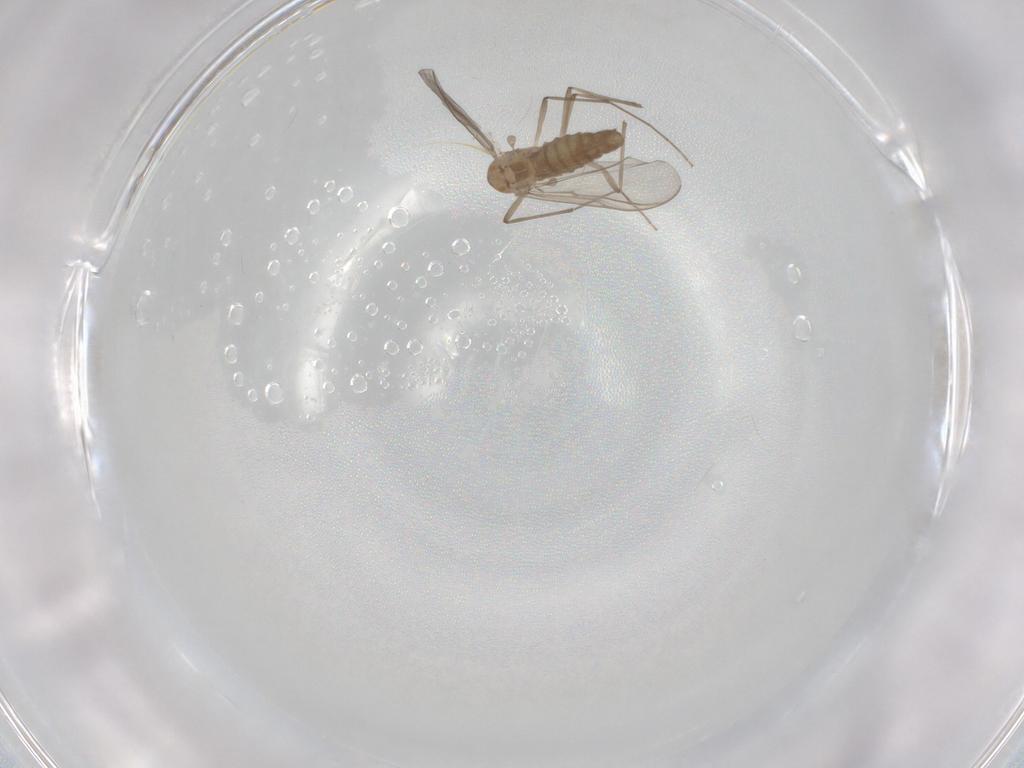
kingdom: Animalia
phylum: Arthropoda
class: Insecta
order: Diptera
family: Chironomidae
